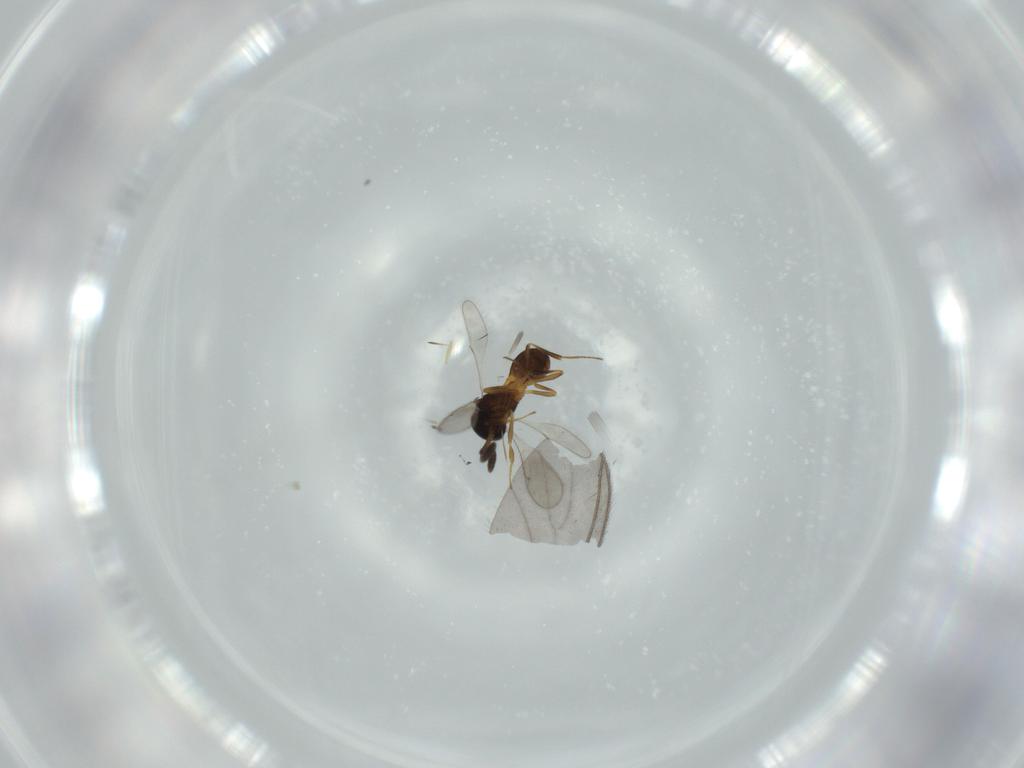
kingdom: Animalia
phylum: Arthropoda
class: Insecta
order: Hymenoptera
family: Scelionidae
